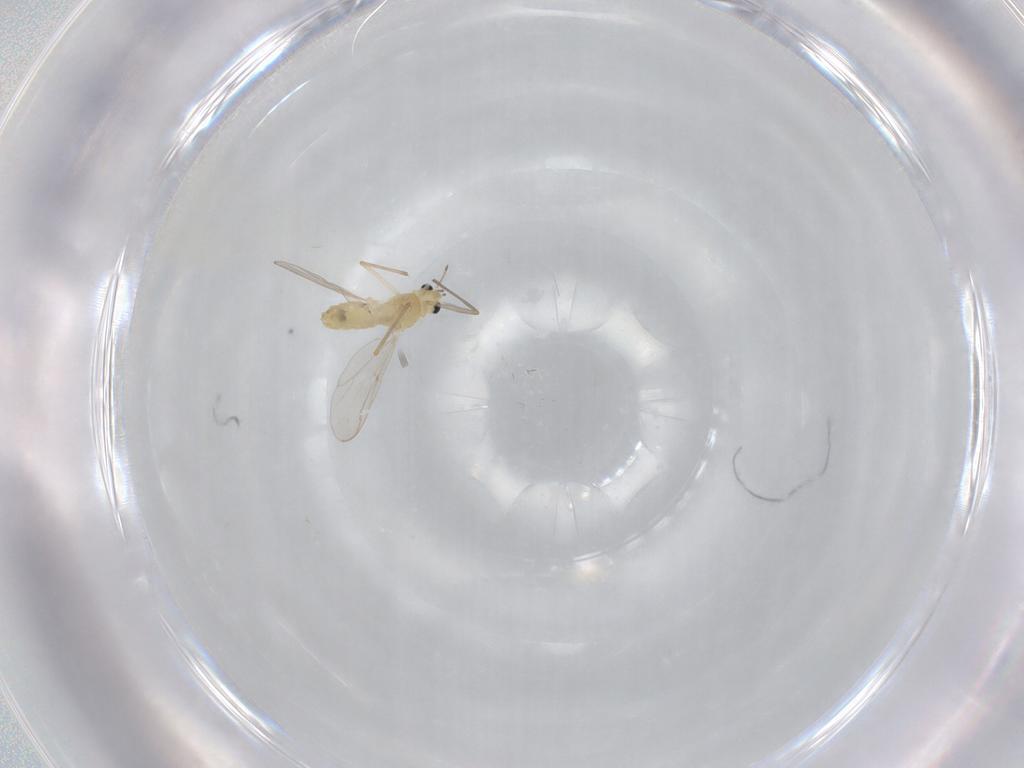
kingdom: Animalia
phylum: Arthropoda
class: Insecta
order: Diptera
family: Chironomidae
